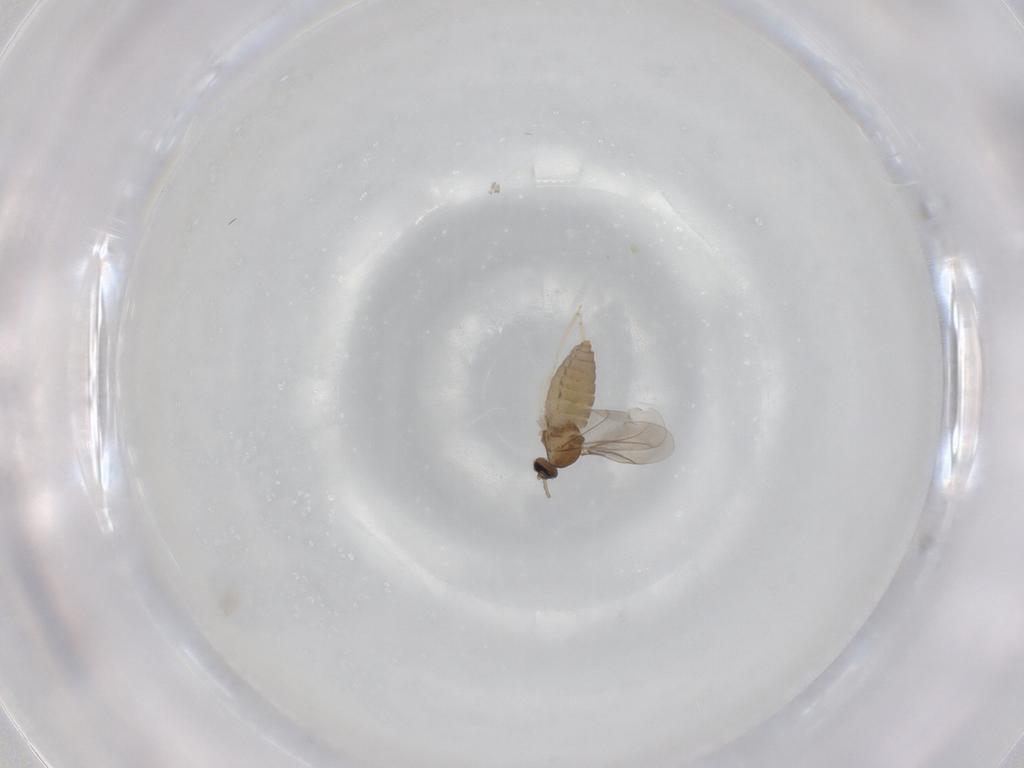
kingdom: Animalia
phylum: Arthropoda
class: Insecta
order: Diptera
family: Cecidomyiidae
